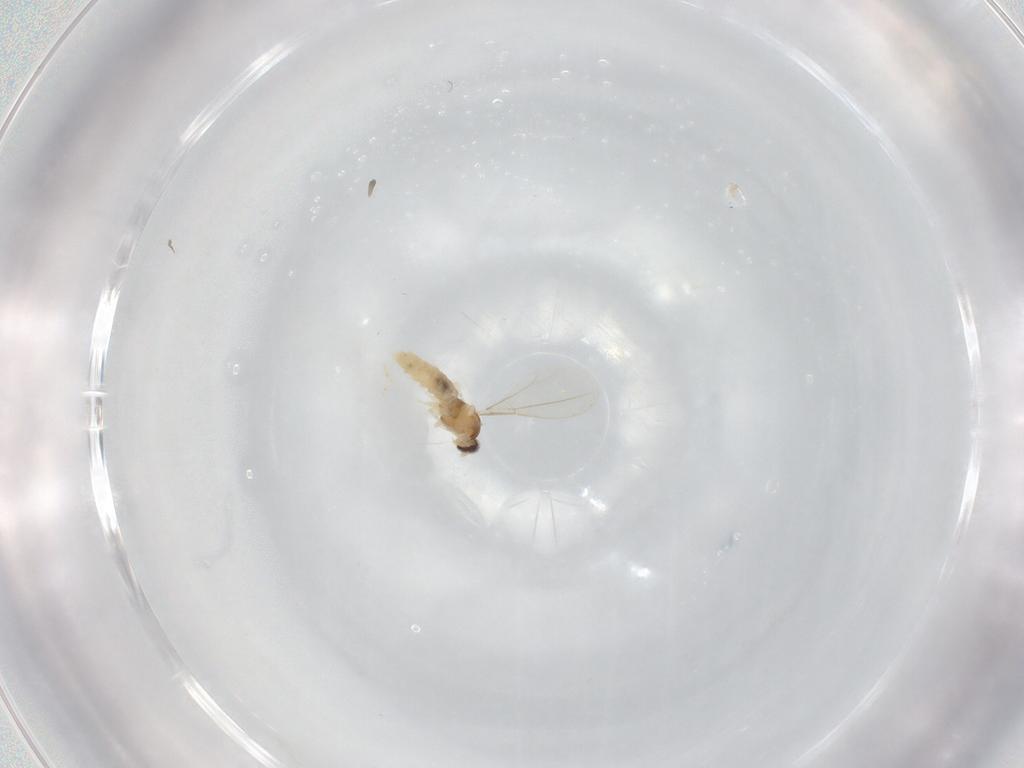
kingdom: Animalia
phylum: Arthropoda
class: Insecta
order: Diptera
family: Cecidomyiidae
